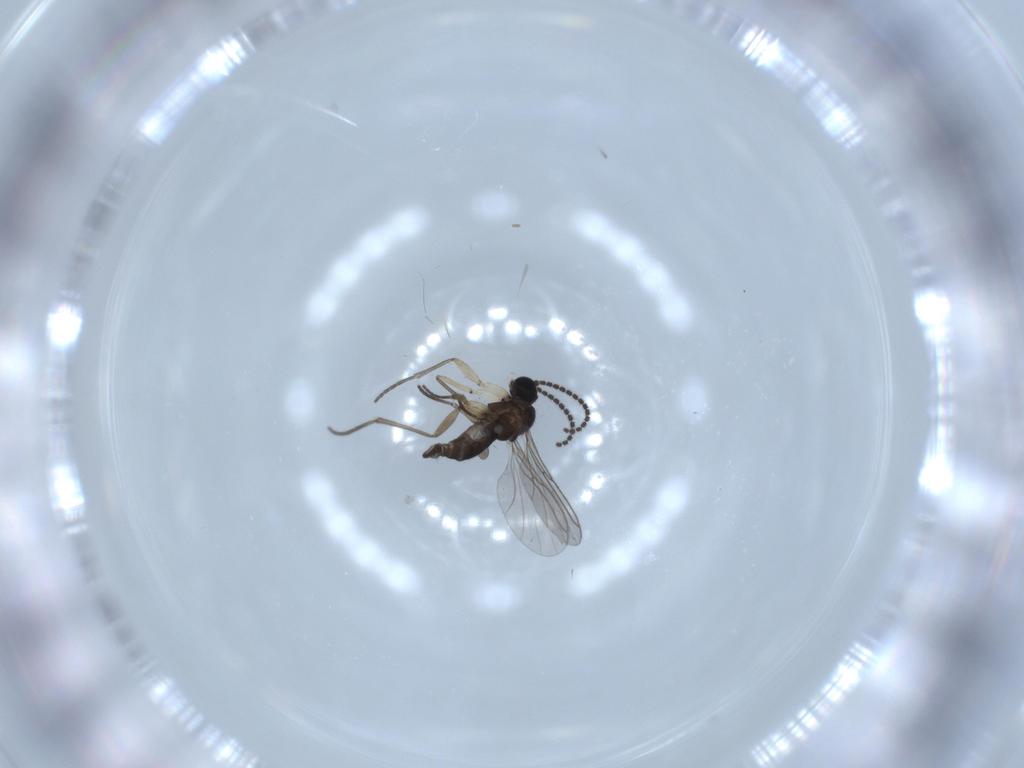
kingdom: Animalia
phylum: Arthropoda
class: Insecta
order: Diptera
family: Sciaridae
